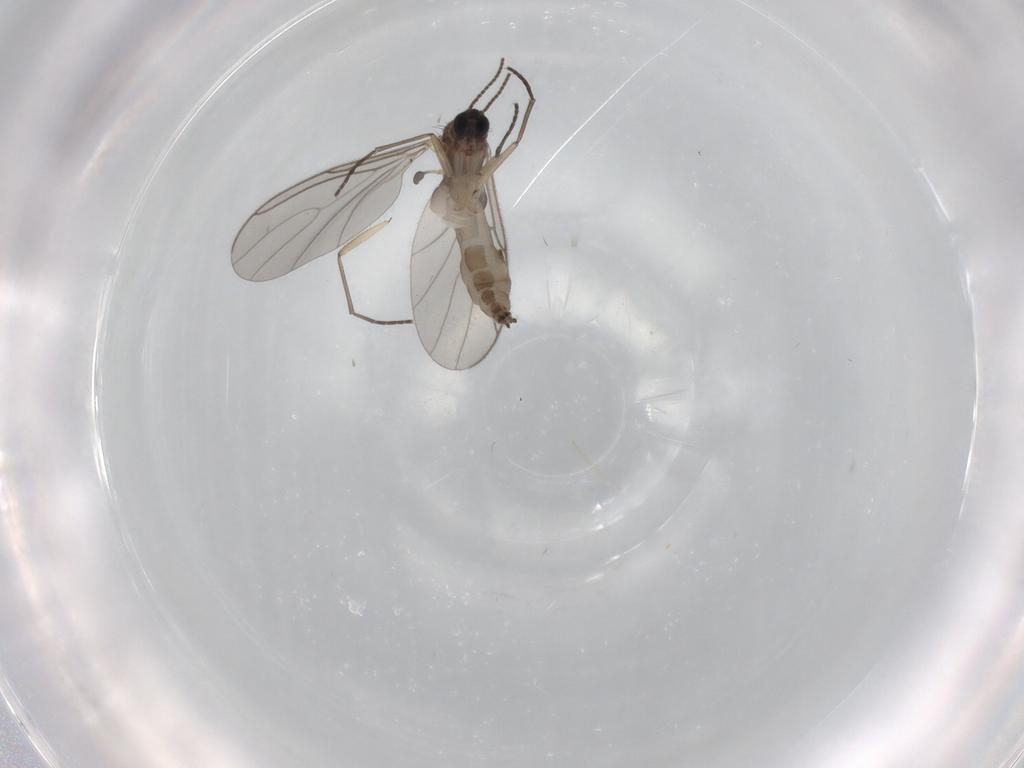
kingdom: Animalia
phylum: Arthropoda
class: Insecta
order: Diptera
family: Sciaridae
